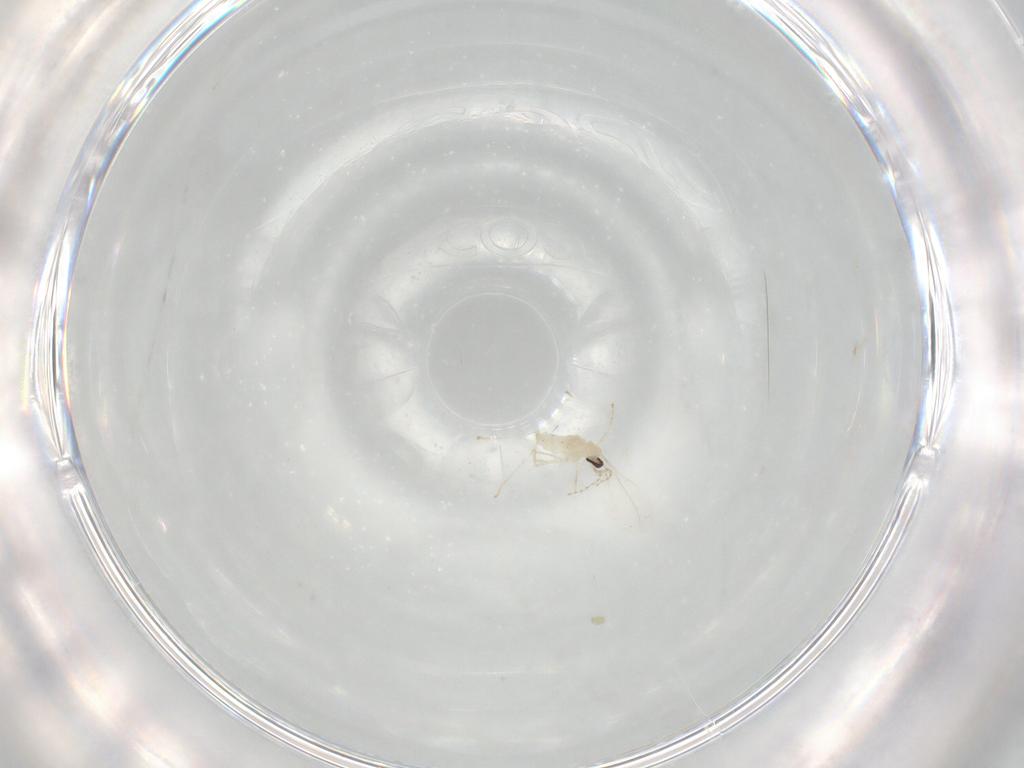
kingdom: Animalia
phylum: Arthropoda
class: Insecta
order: Diptera
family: Cecidomyiidae
